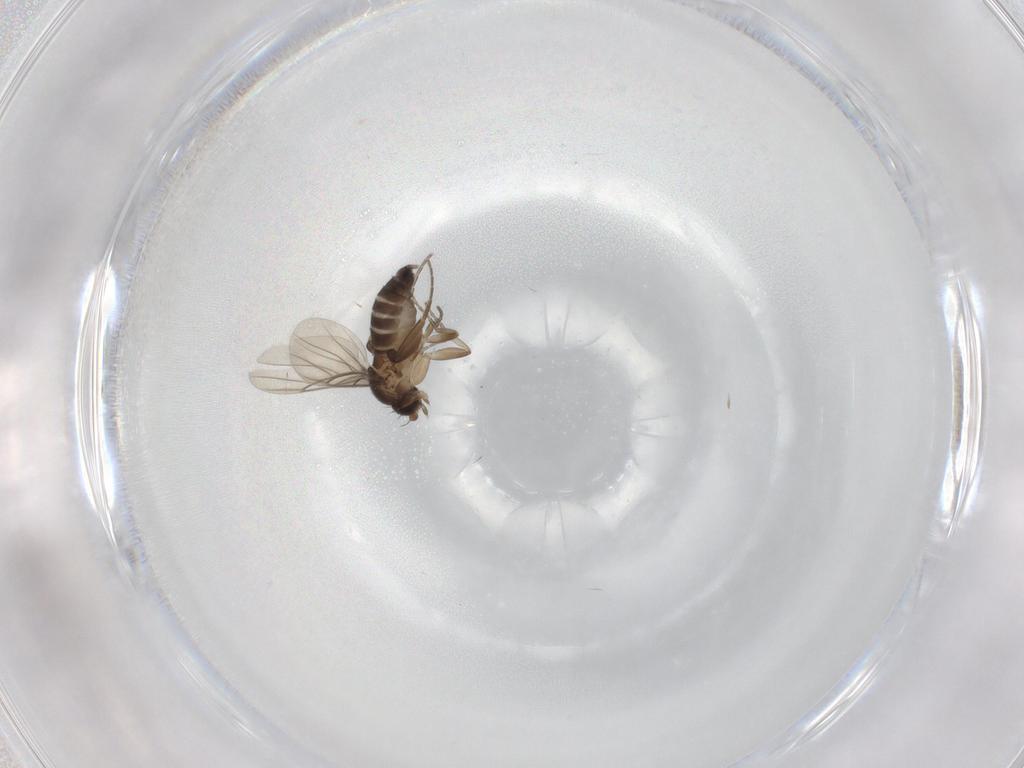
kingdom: Animalia
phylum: Arthropoda
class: Insecta
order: Diptera
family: Phoridae
